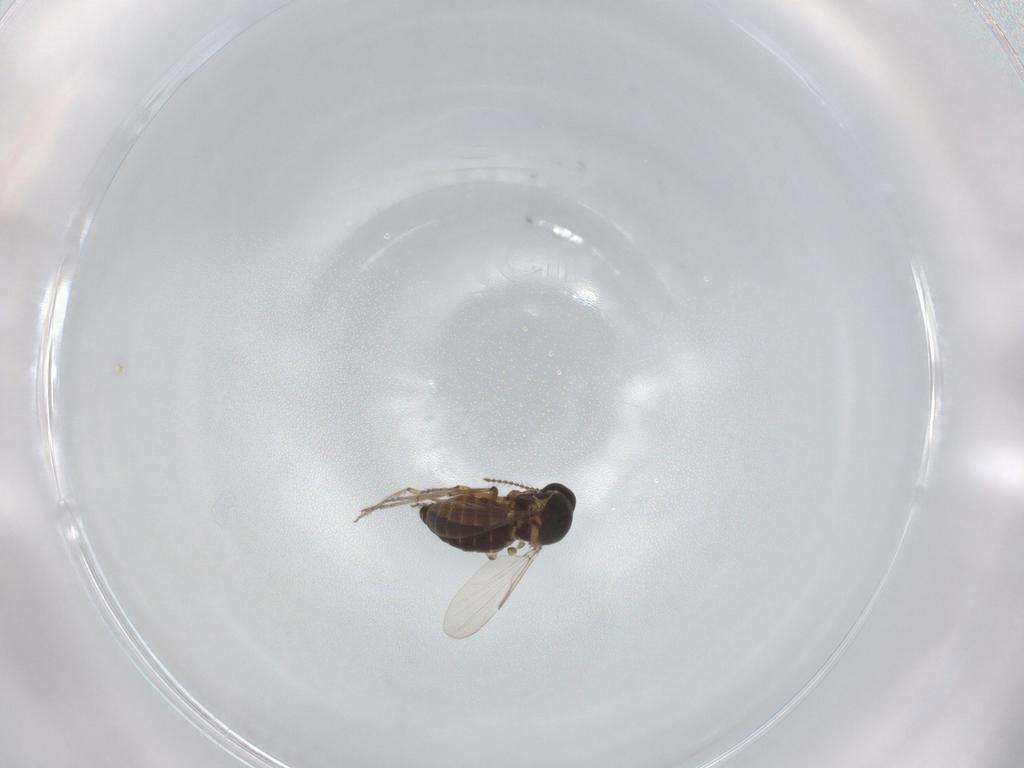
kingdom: Animalia
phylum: Arthropoda
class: Insecta
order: Diptera
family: Ceratopogonidae
